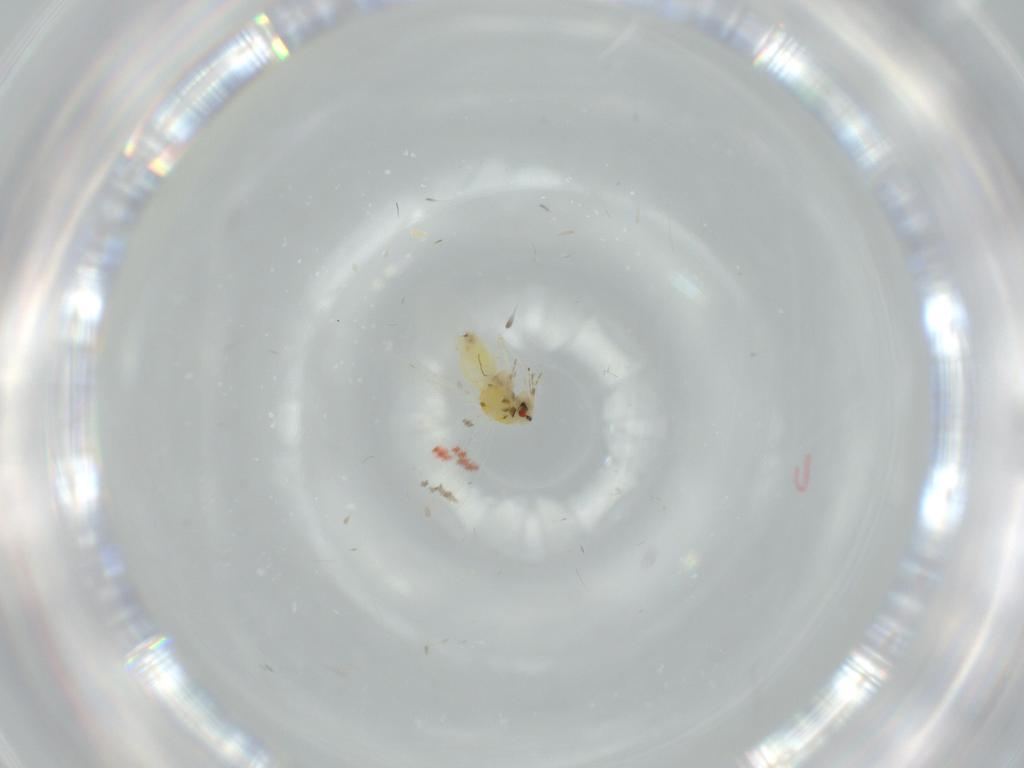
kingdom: Animalia
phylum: Arthropoda
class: Insecta
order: Hemiptera
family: Aleyrodidae
